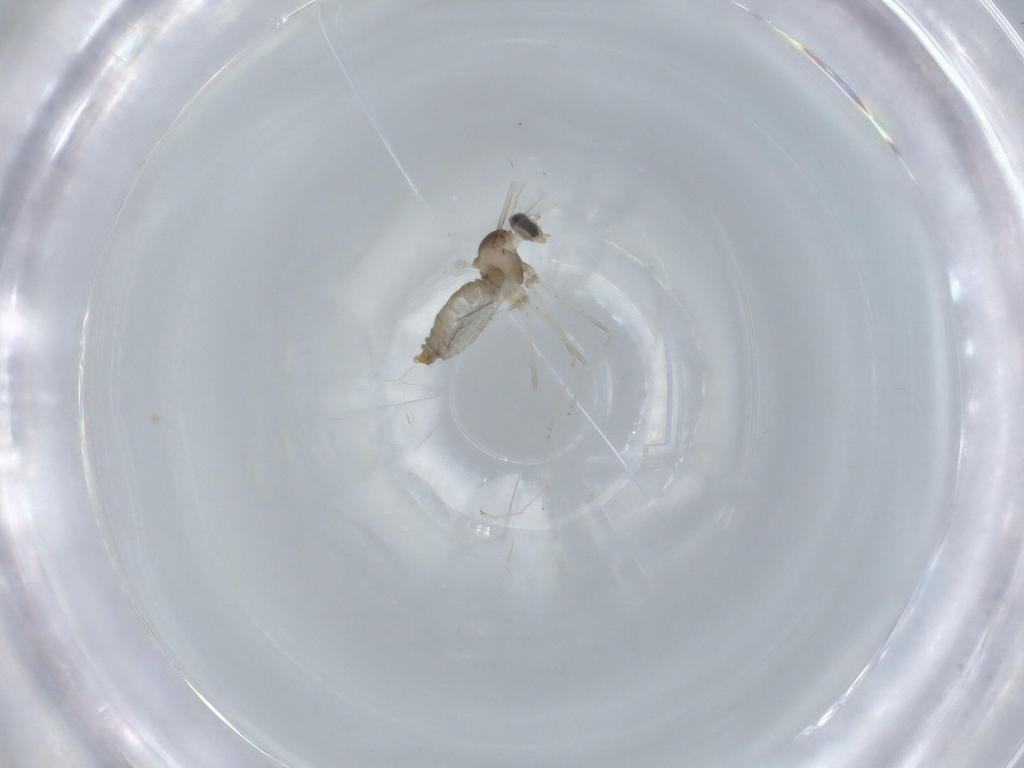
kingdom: Animalia
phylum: Arthropoda
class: Insecta
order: Diptera
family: Cecidomyiidae
